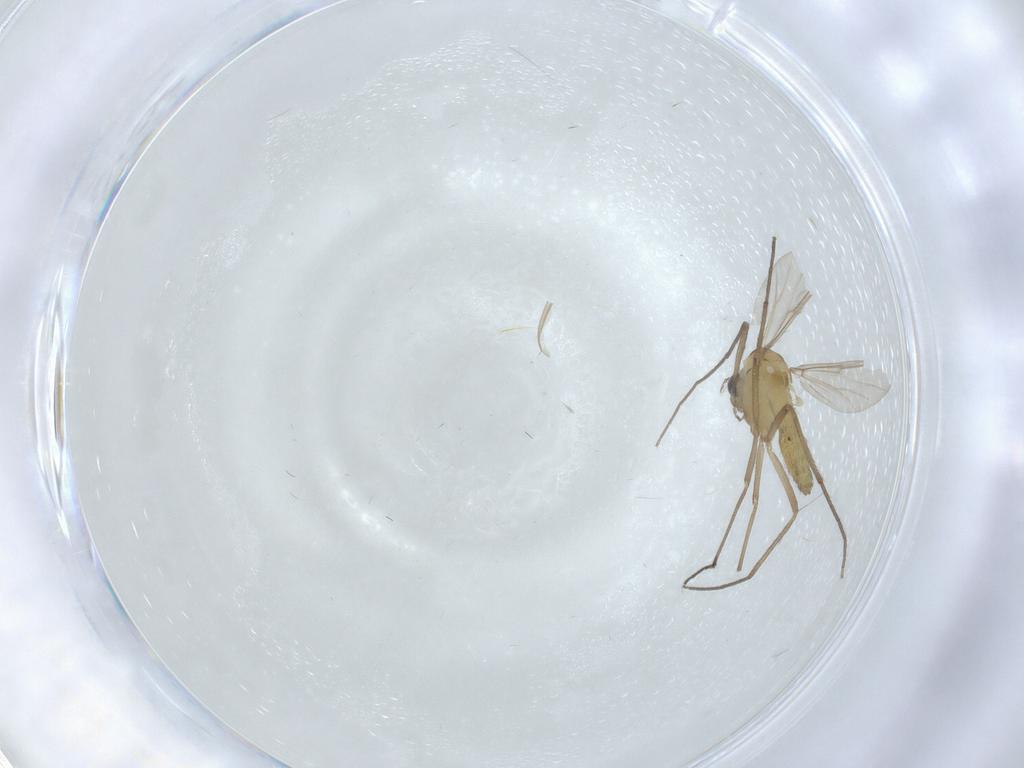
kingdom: Animalia
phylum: Arthropoda
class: Insecta
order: Diptera
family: Chironomidae
